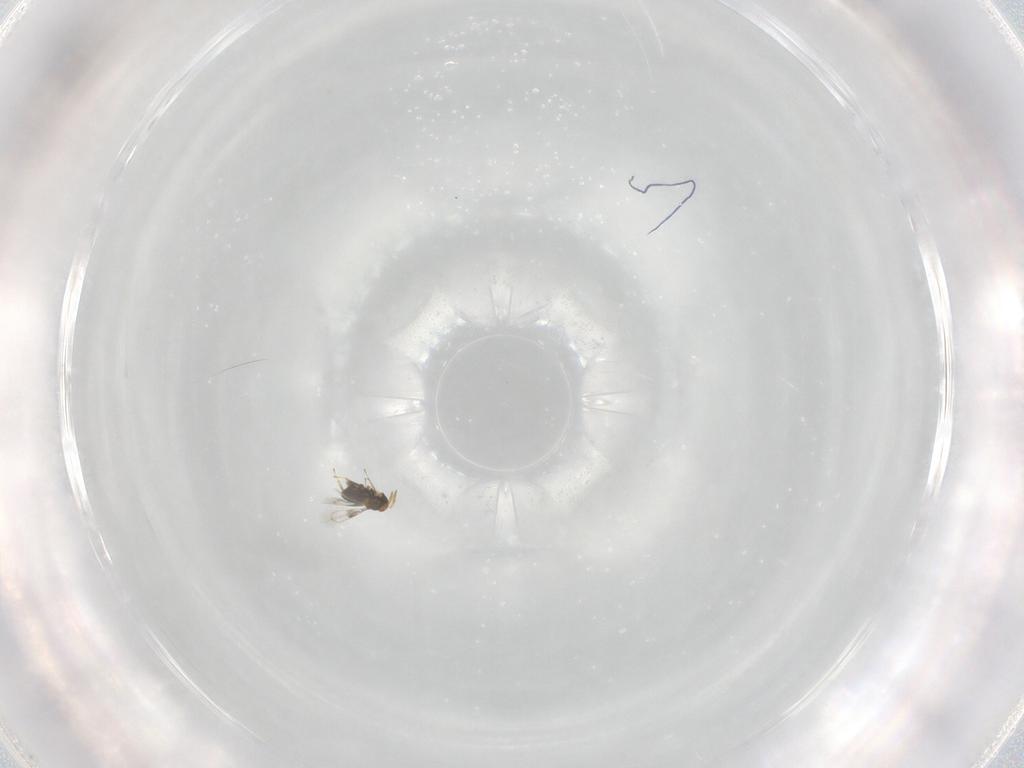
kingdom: Animalia
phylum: Arthropoda
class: Insecta
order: Hymenoptera
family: Trichogrammatidae
